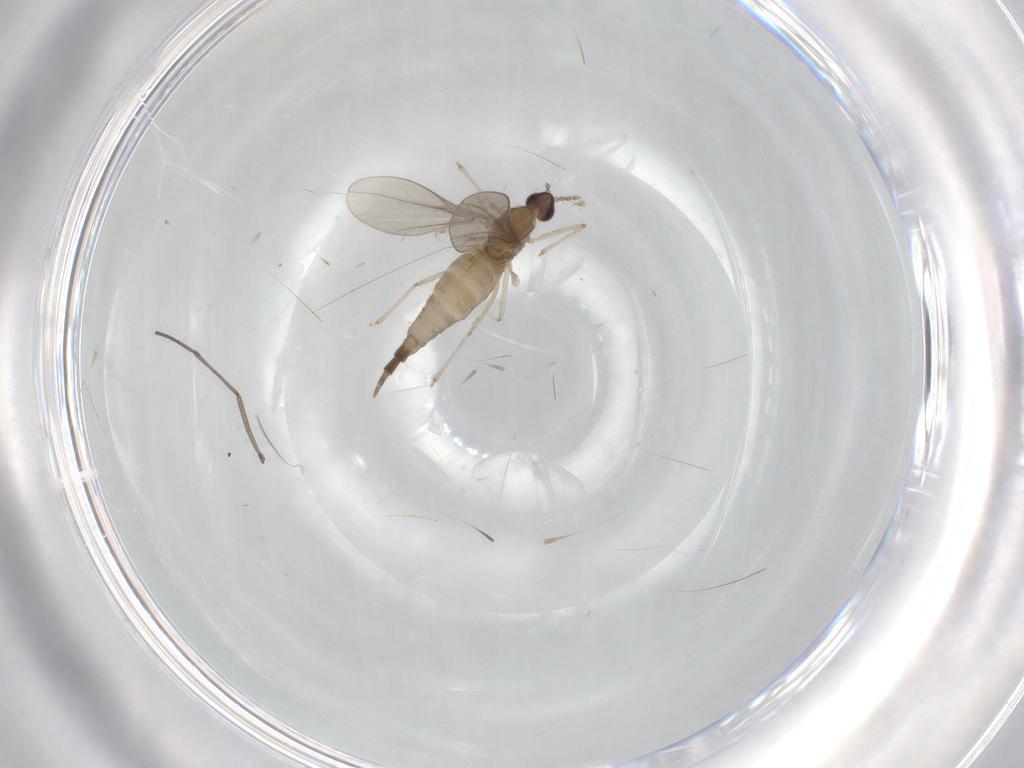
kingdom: Animalia
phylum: Arthropoda
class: Insecta
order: Diptera
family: Cecidomyiidae
